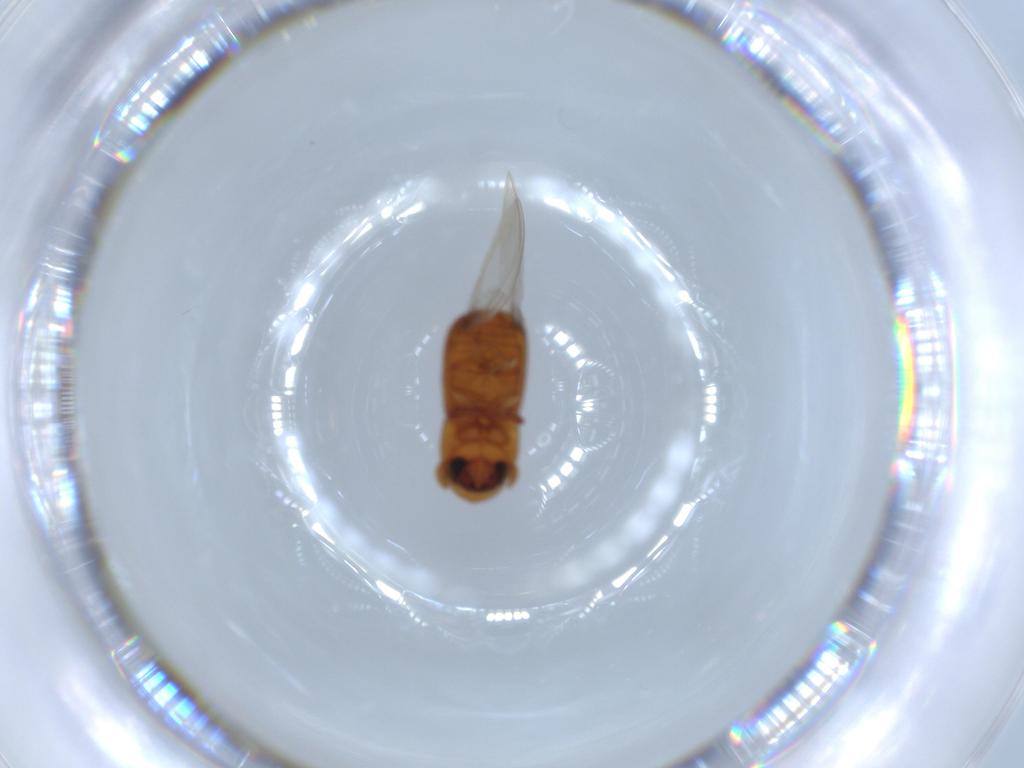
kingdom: Animalia
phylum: Arthropoda
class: Insecta
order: Coleoptera
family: Curculionidae
